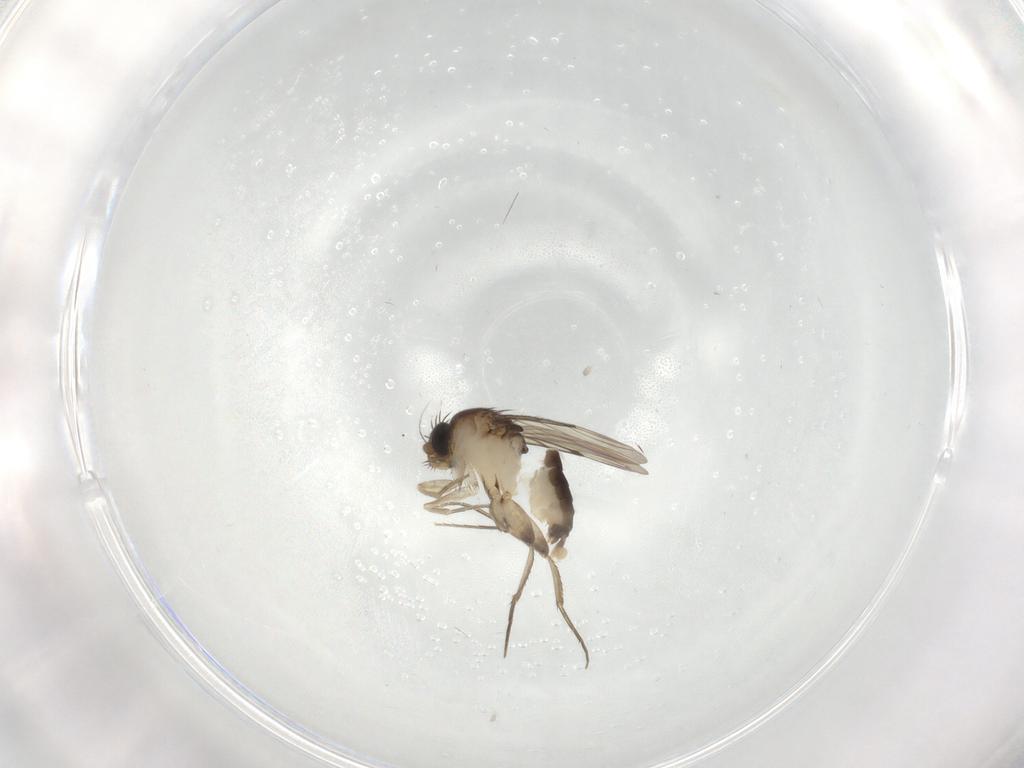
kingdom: Animalia
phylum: Arthropoda
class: Insecta
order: Diptera
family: Phoridae
